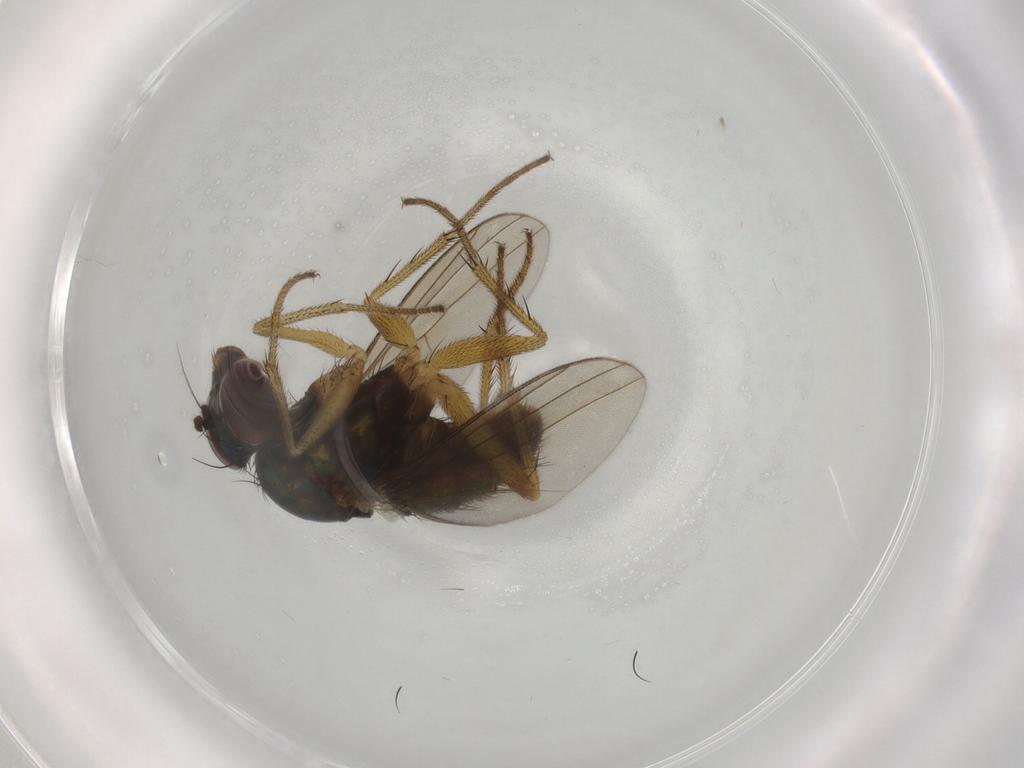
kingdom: Animalia
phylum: Arthropoda
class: Insecta
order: Diptera
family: Dolichopodidae
